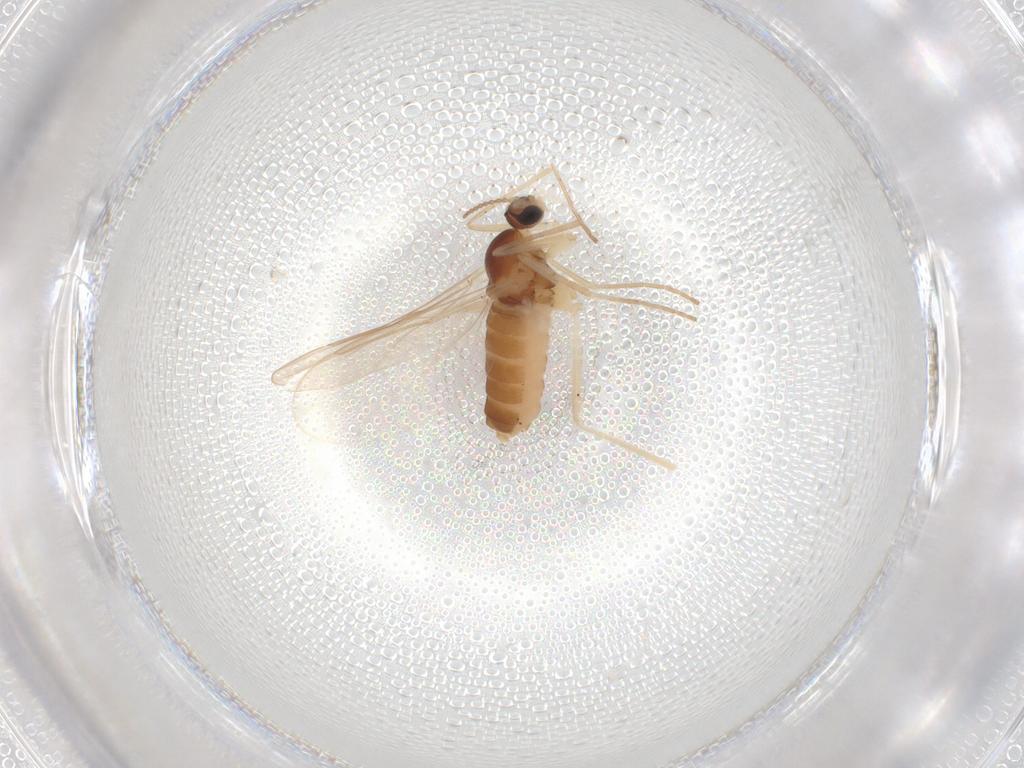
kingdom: Animalia
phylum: Arthropoda
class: Insecta
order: Diptera
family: Cecidomyiidae
